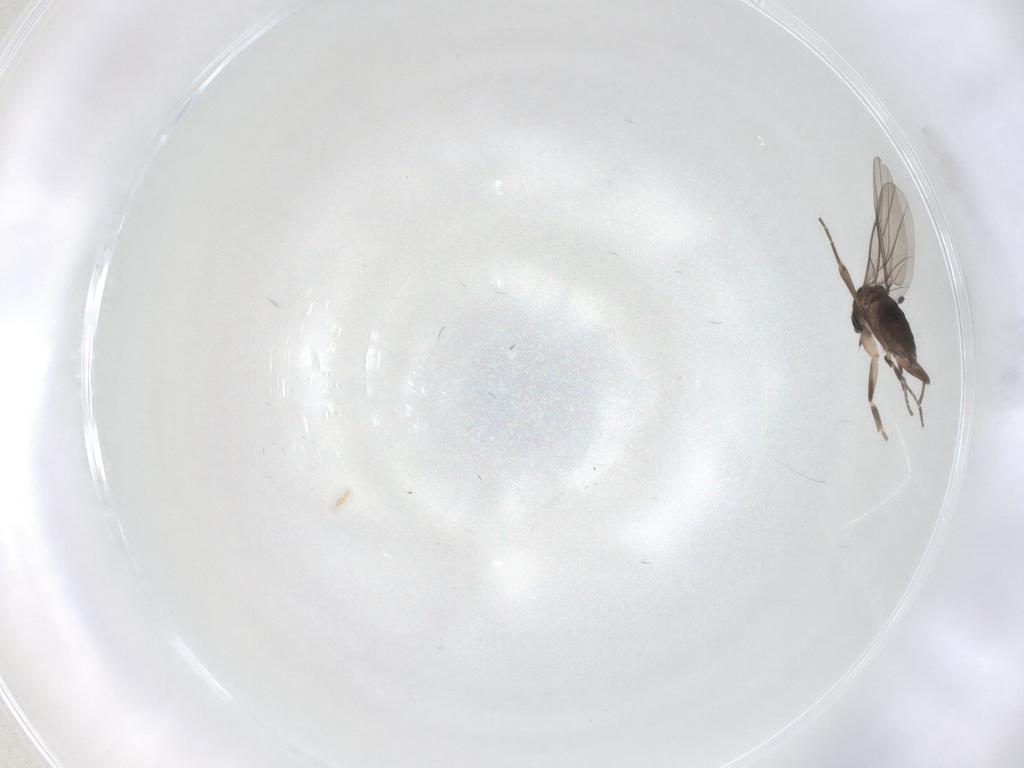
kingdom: Animalia
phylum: Arthropoda
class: Insecta
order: Diptera
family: Phoridae
